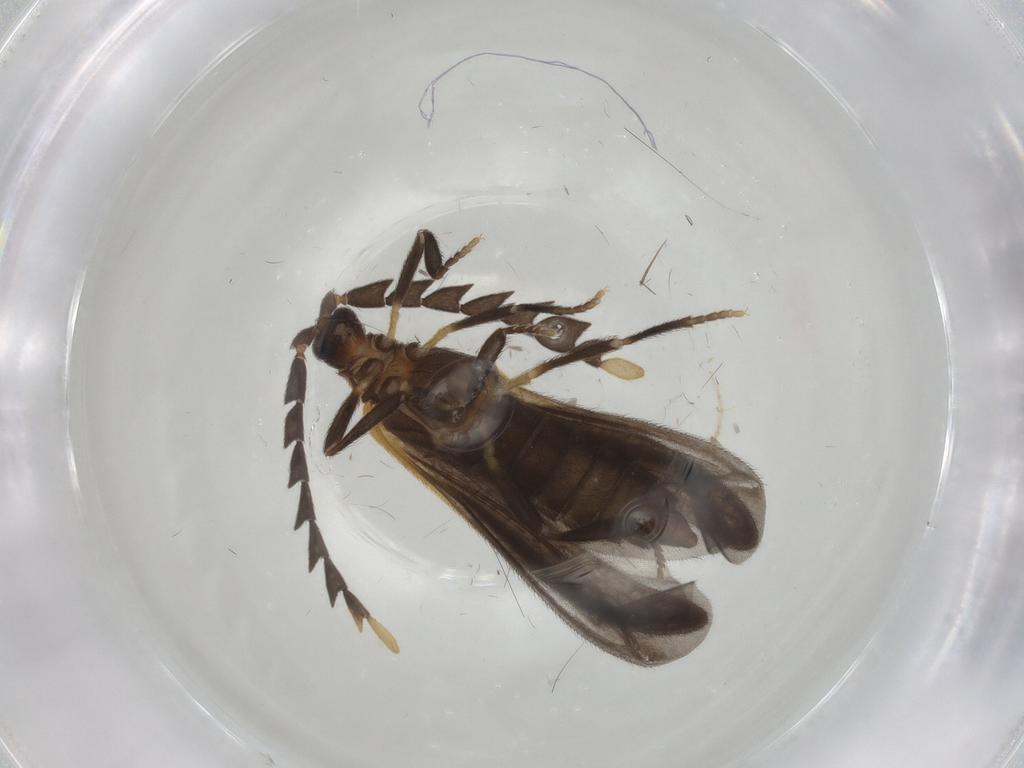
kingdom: Animalia
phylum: Arthropoda
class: Insecta
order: Coleoptera
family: Lycidae
